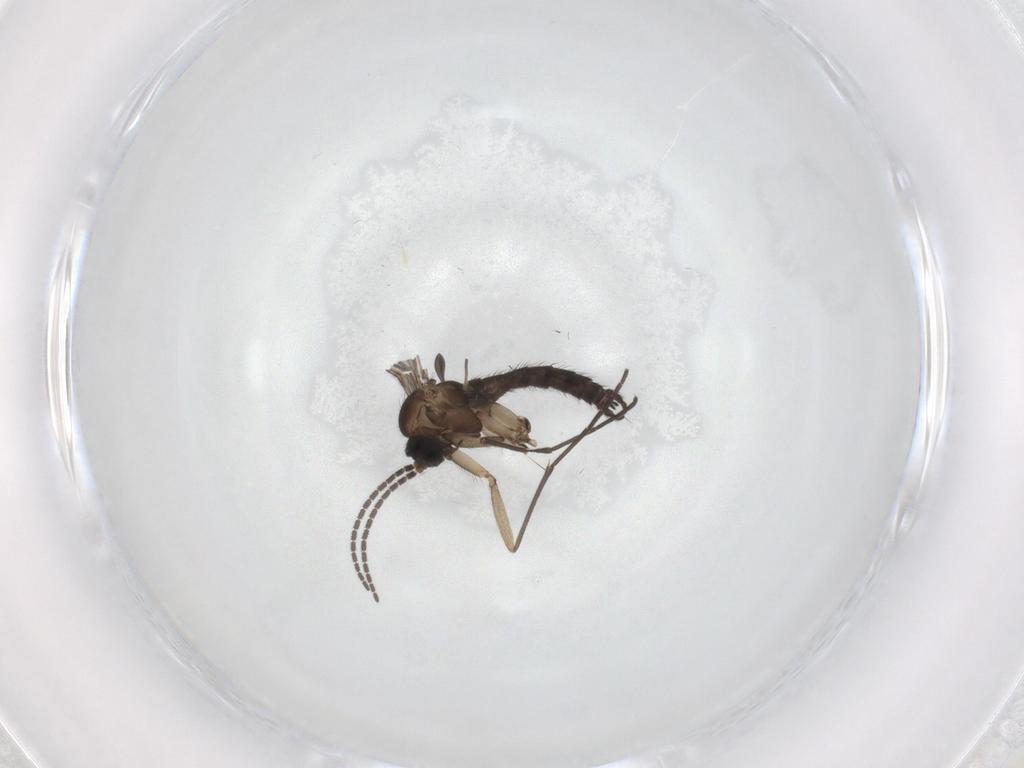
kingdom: Animalia
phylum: Arthropoda
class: Insecta
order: Diptera
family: Sciaridae
